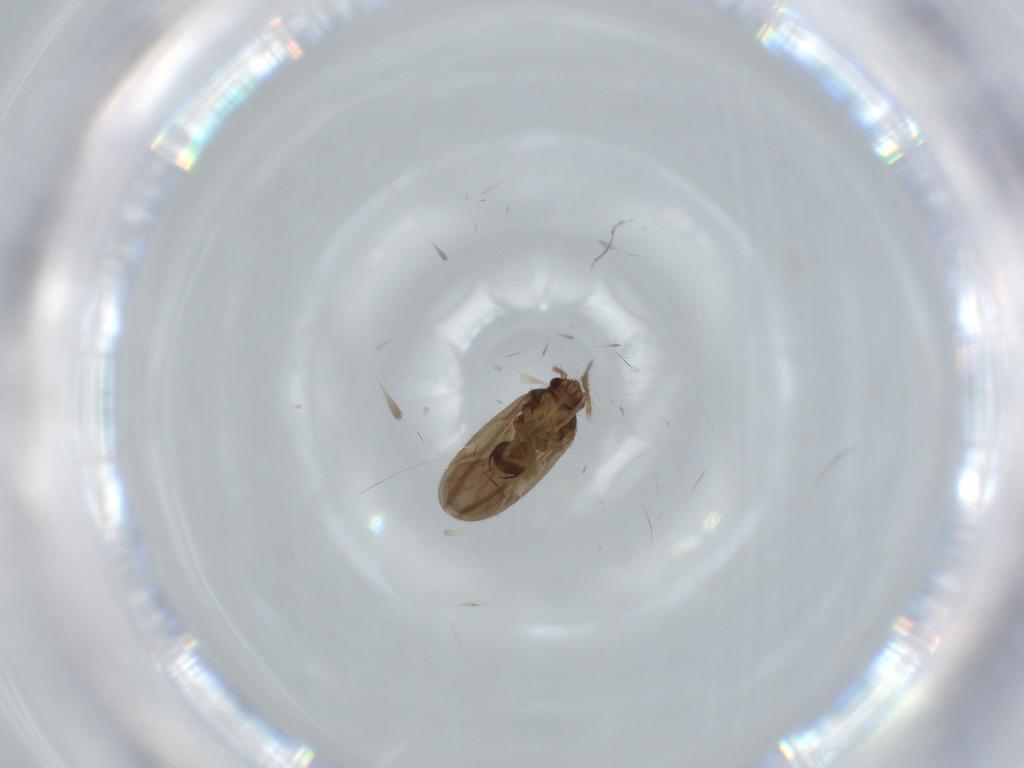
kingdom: Animalia
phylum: Arthropoda
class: Insecta
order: Hemiptera
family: Ceratocombidae
